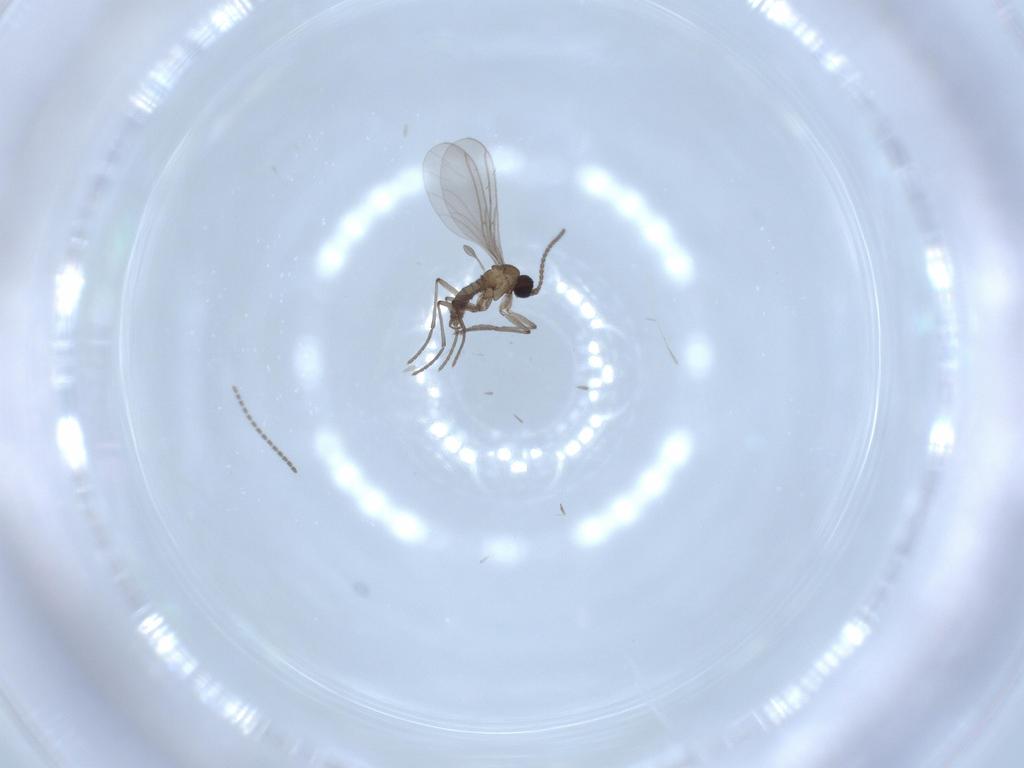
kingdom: Animalia
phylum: Arthropoda
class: Insecta
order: Diptera
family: Sciaridae
